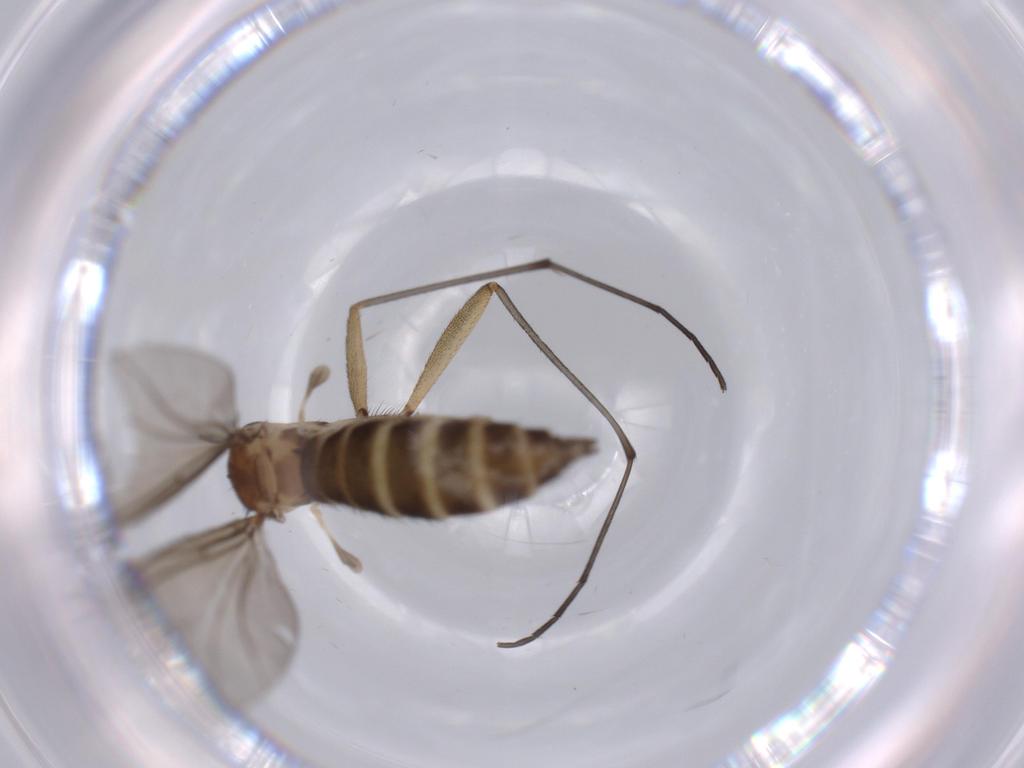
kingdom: Animalia
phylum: Arthropoda
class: Insecta
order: Diptera
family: Sciaridae
